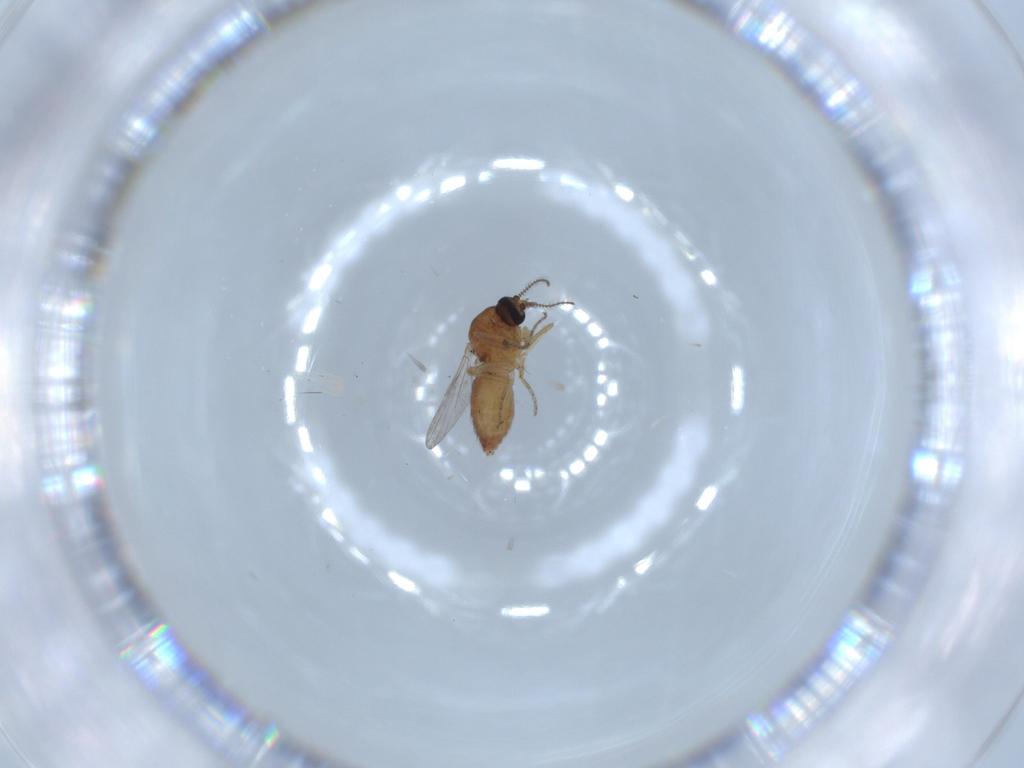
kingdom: Animalia
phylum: Arthropoda
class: Insecta
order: Diptera
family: Ceratopogonidae
